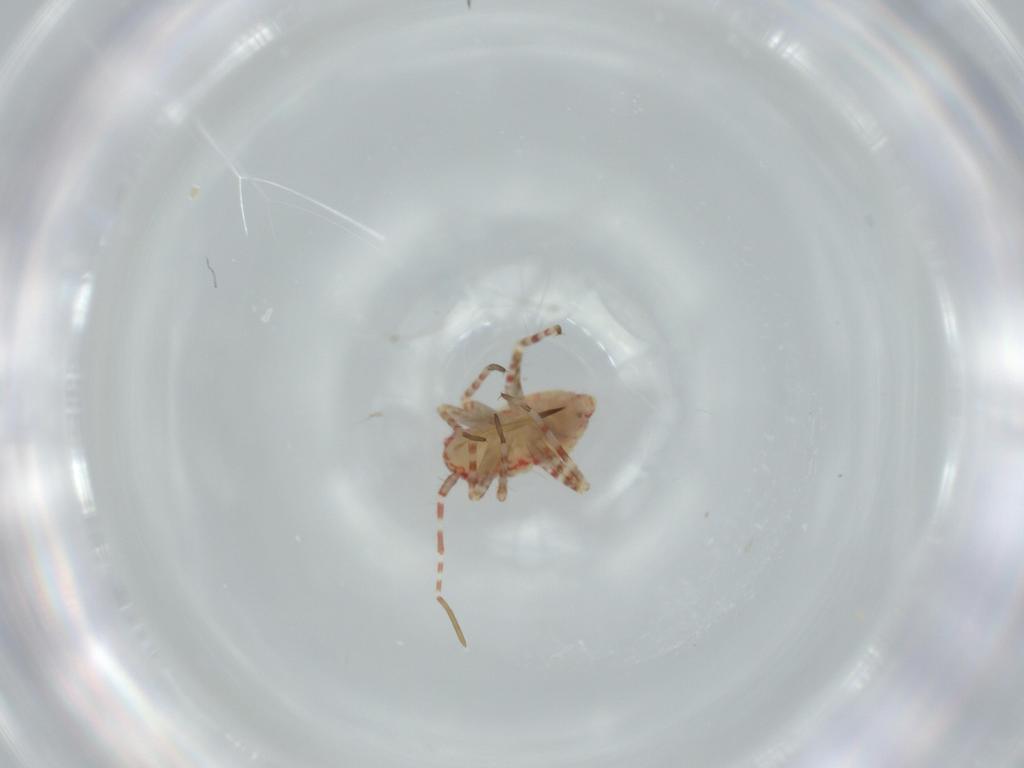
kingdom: Animalia
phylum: Arthropoda
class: Insecta
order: Hemiptera
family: Miridae
